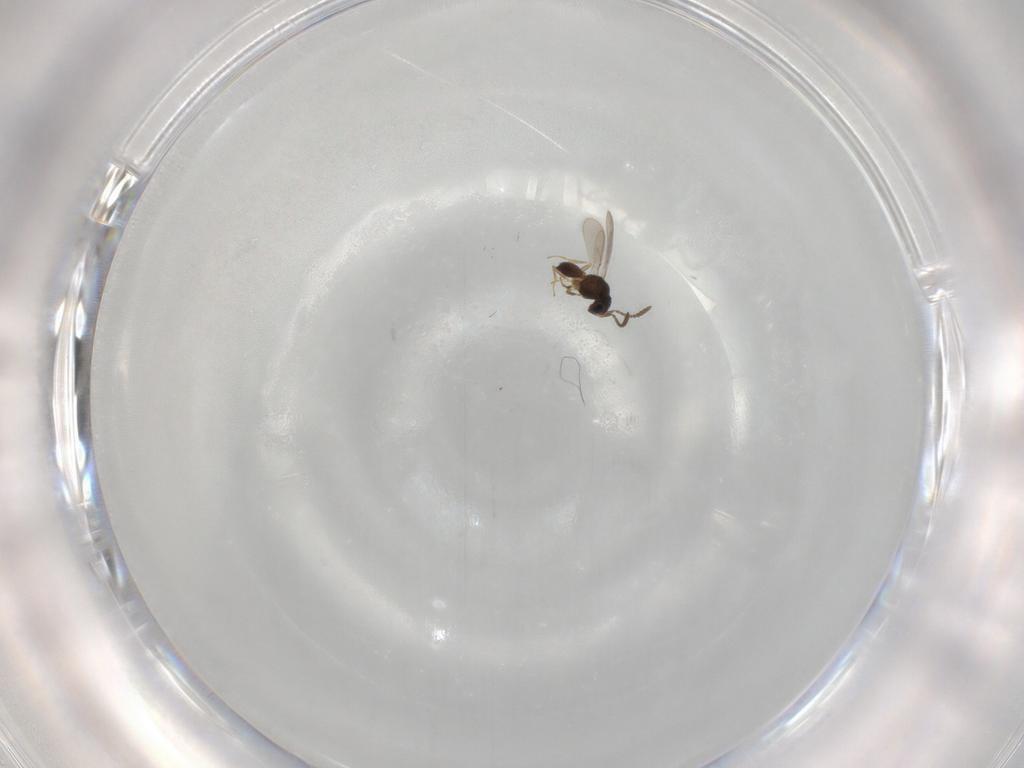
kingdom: Animalia
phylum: Arthropoda
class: Insecta
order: Hymenoptera
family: Scelionidae
